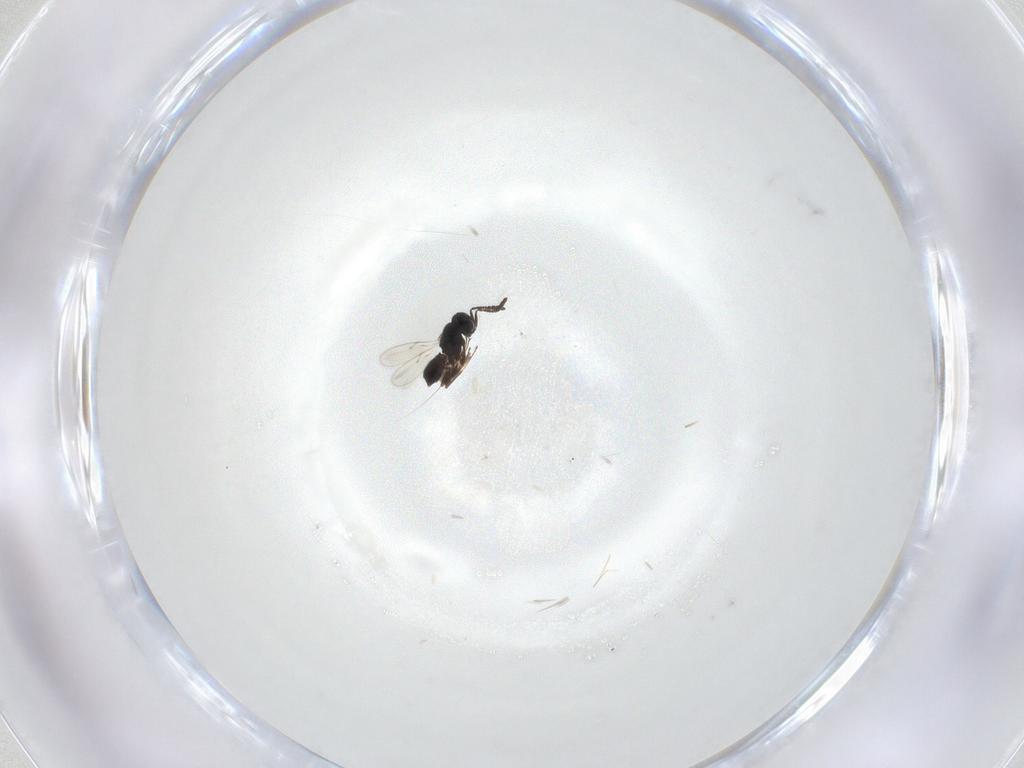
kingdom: Animalia
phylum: Arthropoda
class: Insecta
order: Hymenoptera
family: Scelionidae
